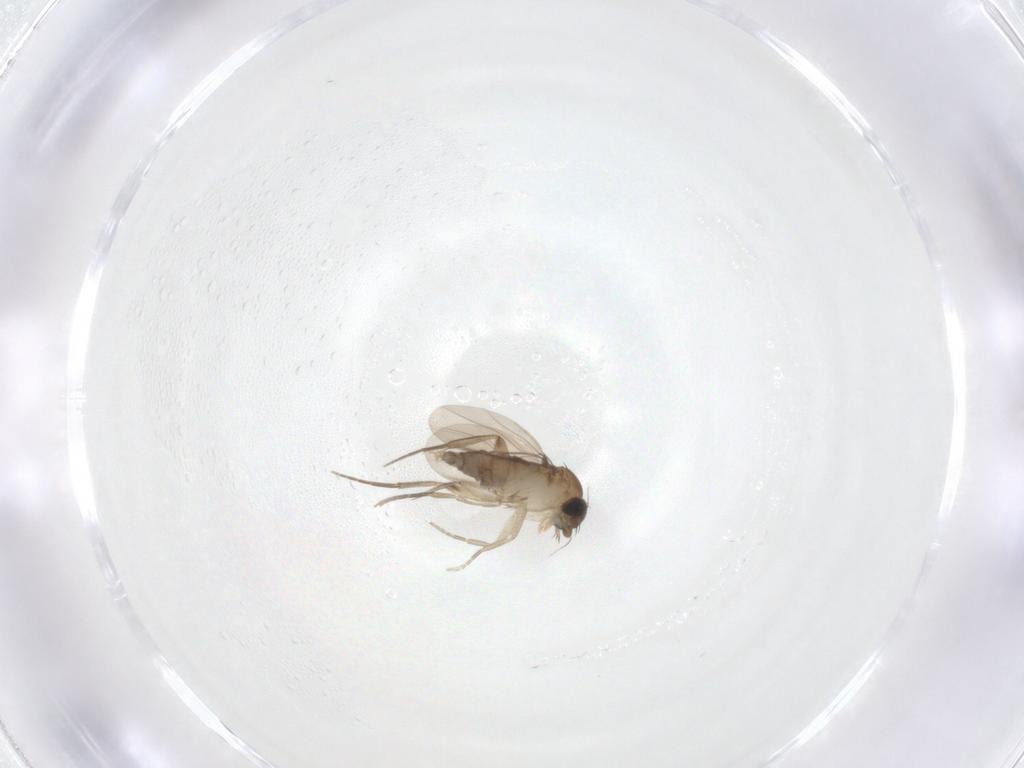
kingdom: Animalia
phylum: Arthropoda
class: Insecta
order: Diptera
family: Phoridae
